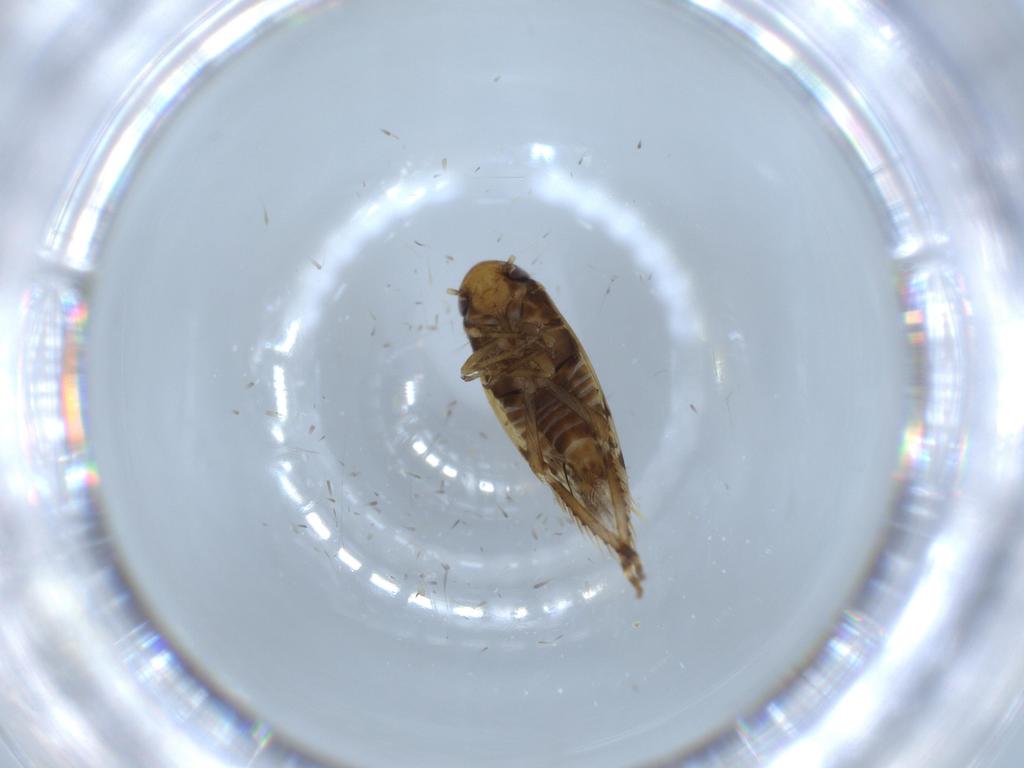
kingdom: Animalia
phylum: Arthropoda
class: Insecta
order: Hemiptera
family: Cicadellidae
